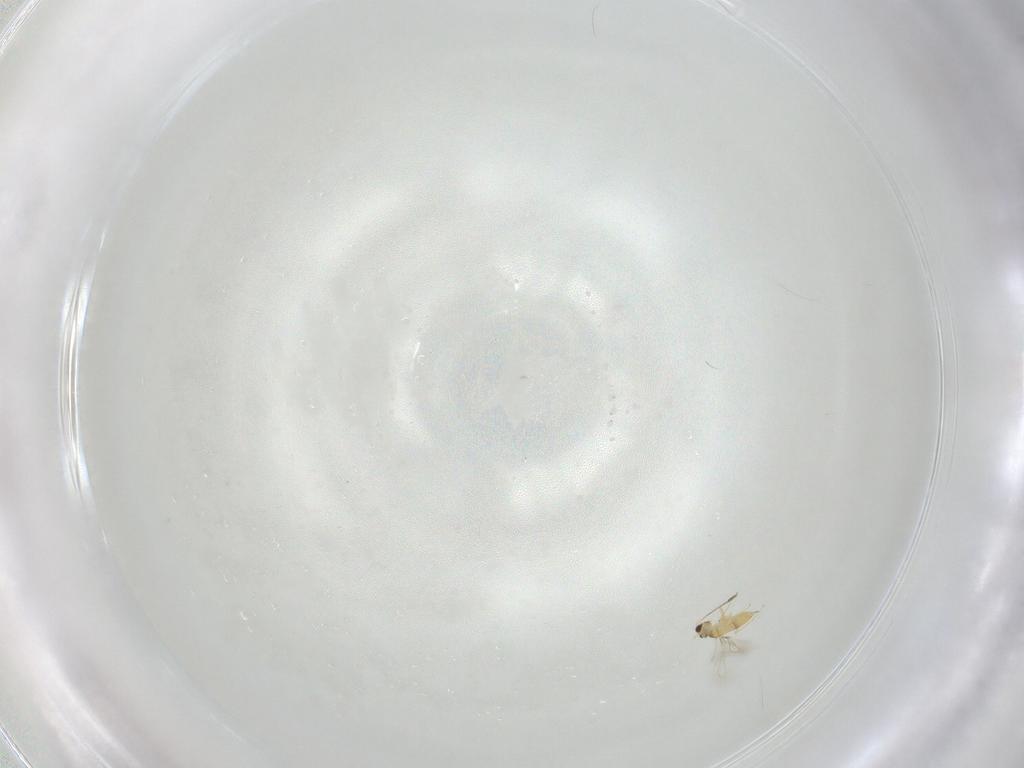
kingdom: Animalia
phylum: Arthropoda
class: Insecta
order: Hymenoptera
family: Mymaridae
